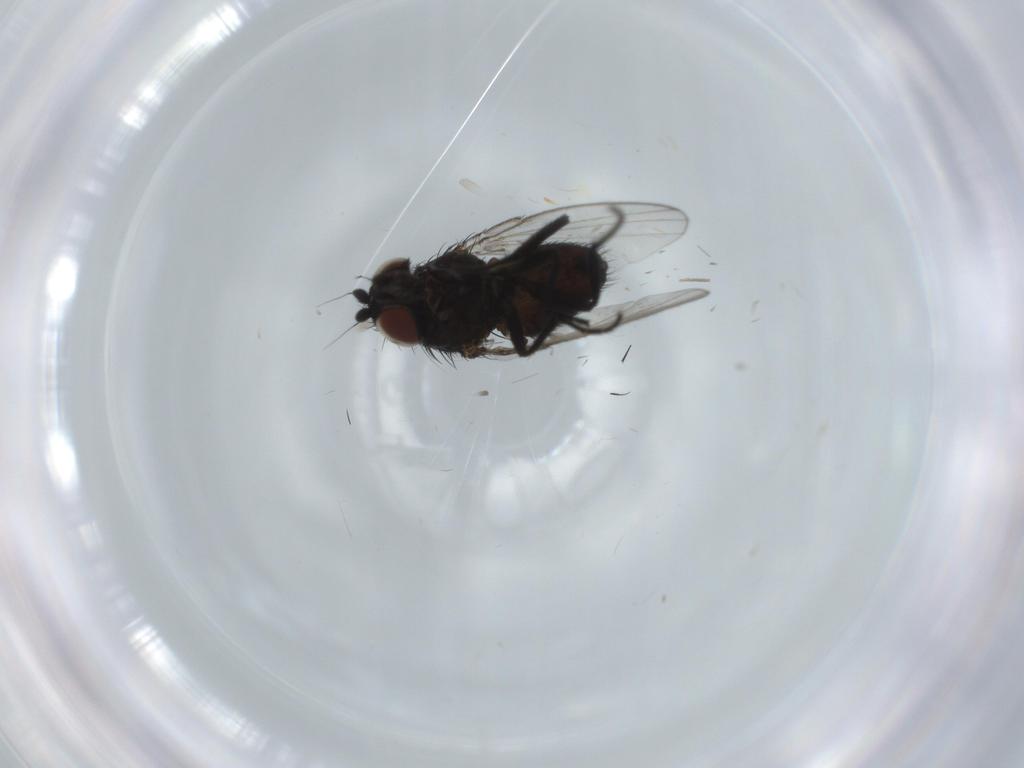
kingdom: Animalia
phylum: Arthropoda
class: Insecta
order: Diptera
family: Milichiidae
